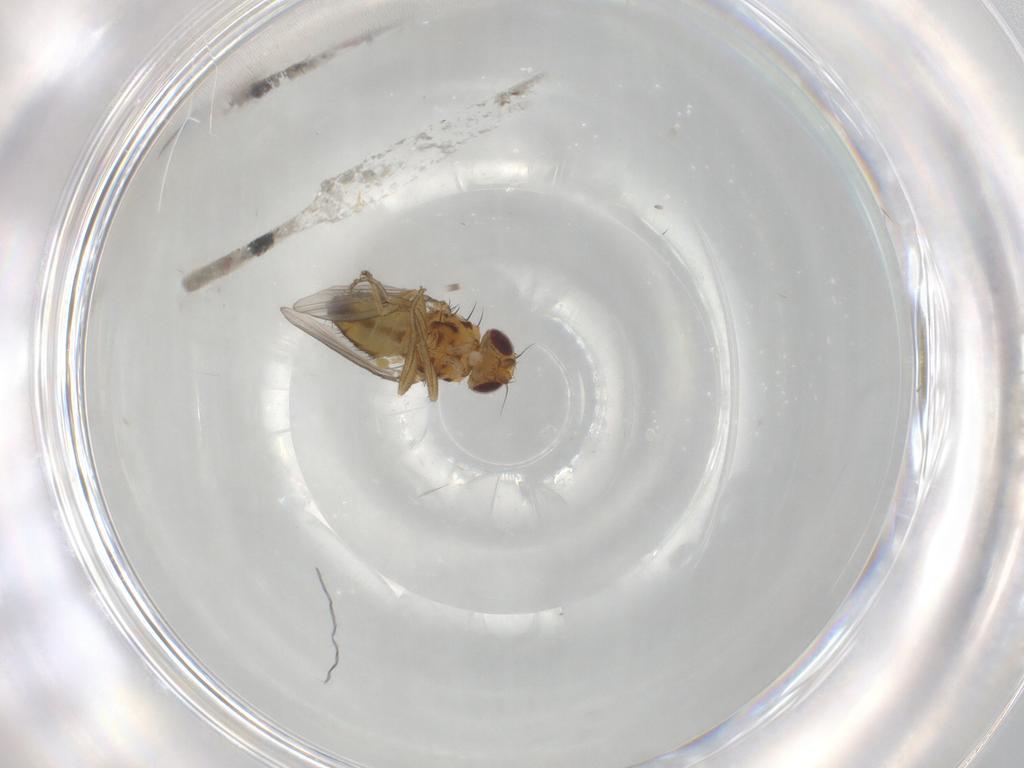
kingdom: Animalia
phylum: Arthropoda
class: Insecta
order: Diptera
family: Milichiidae
